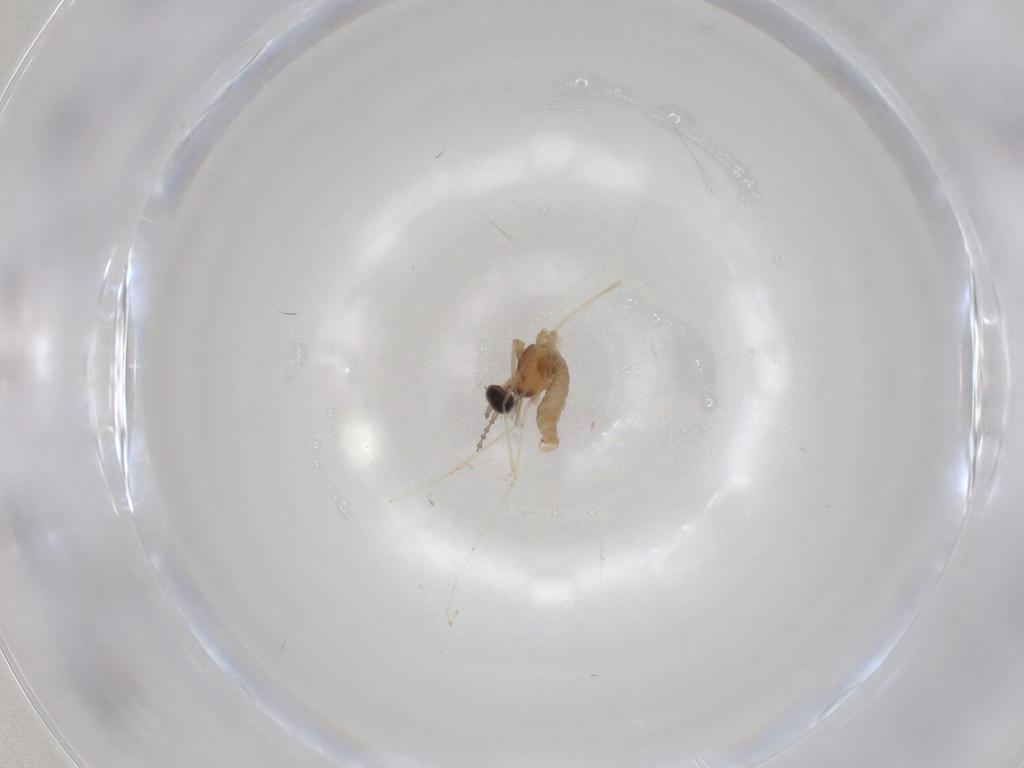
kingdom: Animalia
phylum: Arthropoda
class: Insecta
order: Diptera
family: Cecidomyiidae
